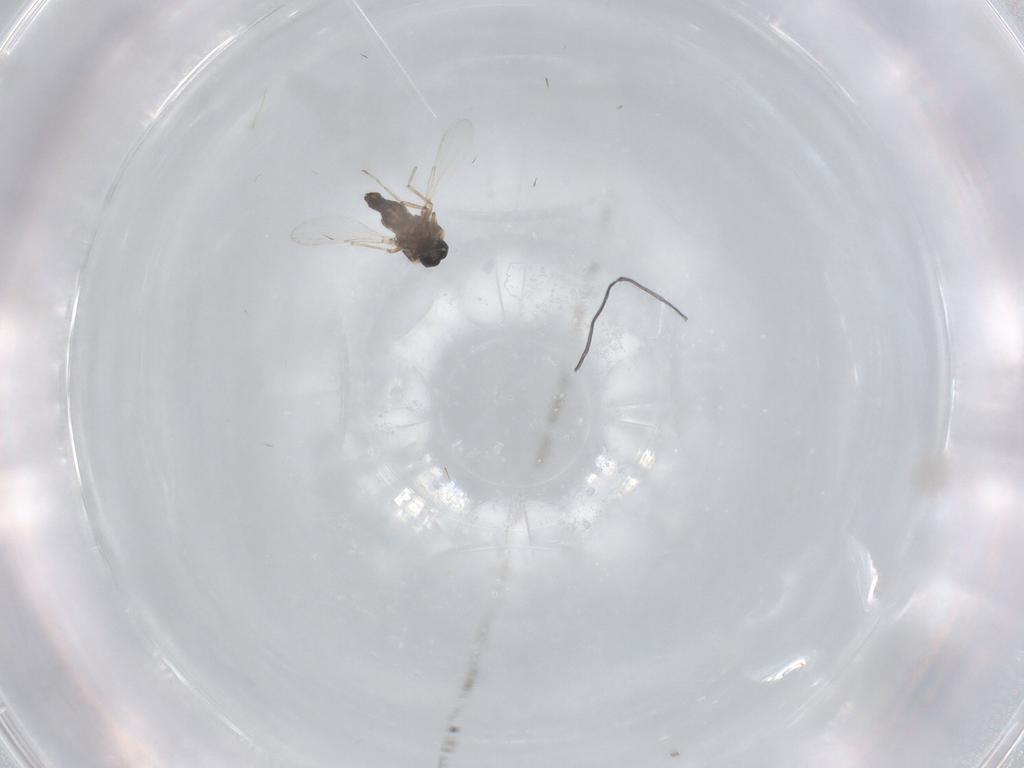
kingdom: Animalia
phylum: Arthropoda
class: Insecta
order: Diptera
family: Ceratopogonidae
